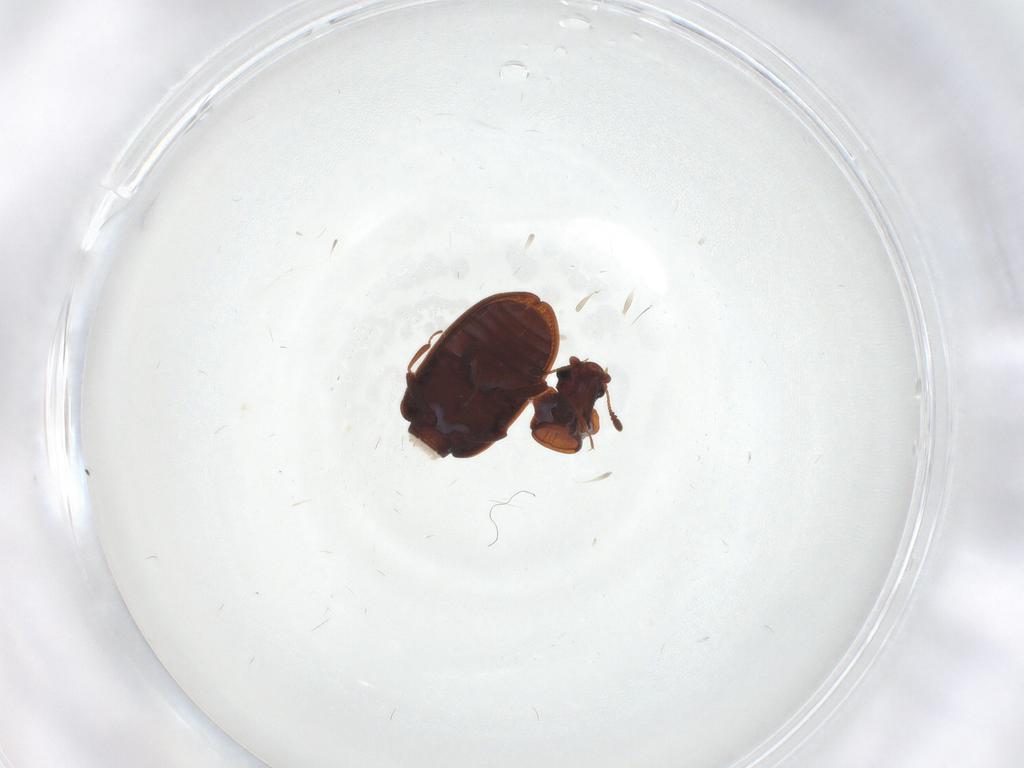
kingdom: Animalia
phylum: Arthropoda
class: Insecta
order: Coleoptera
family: Latridiidae
